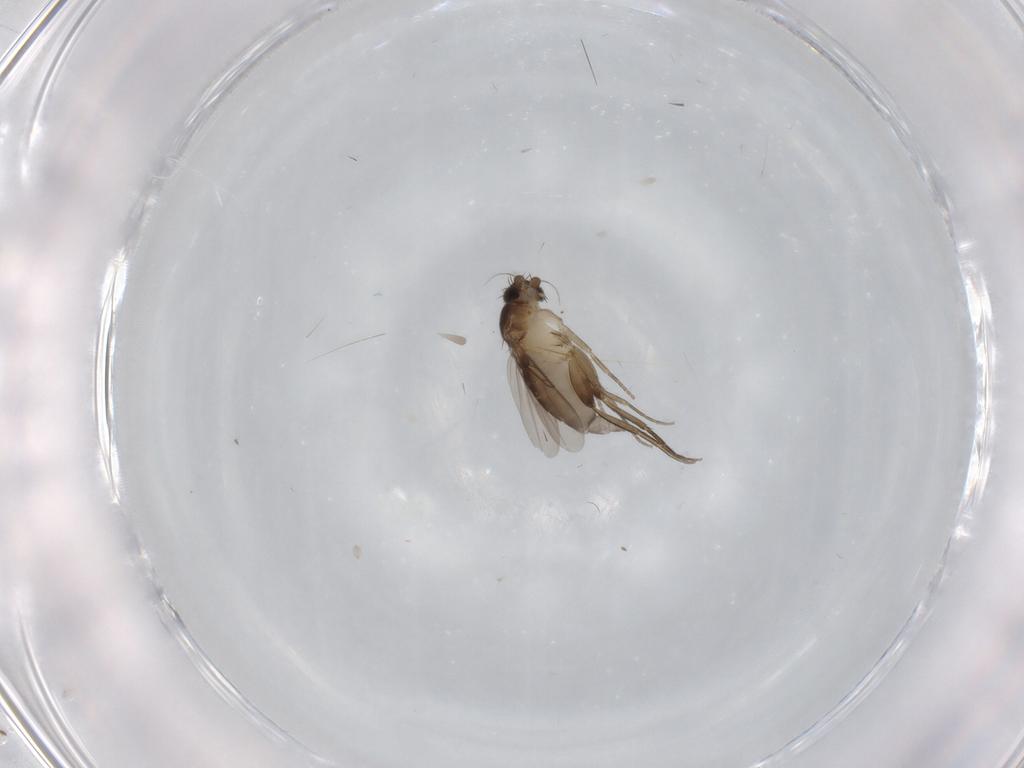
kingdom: Animalia
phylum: Arthropoda
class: Insecta
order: Diptera
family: Phoridae
